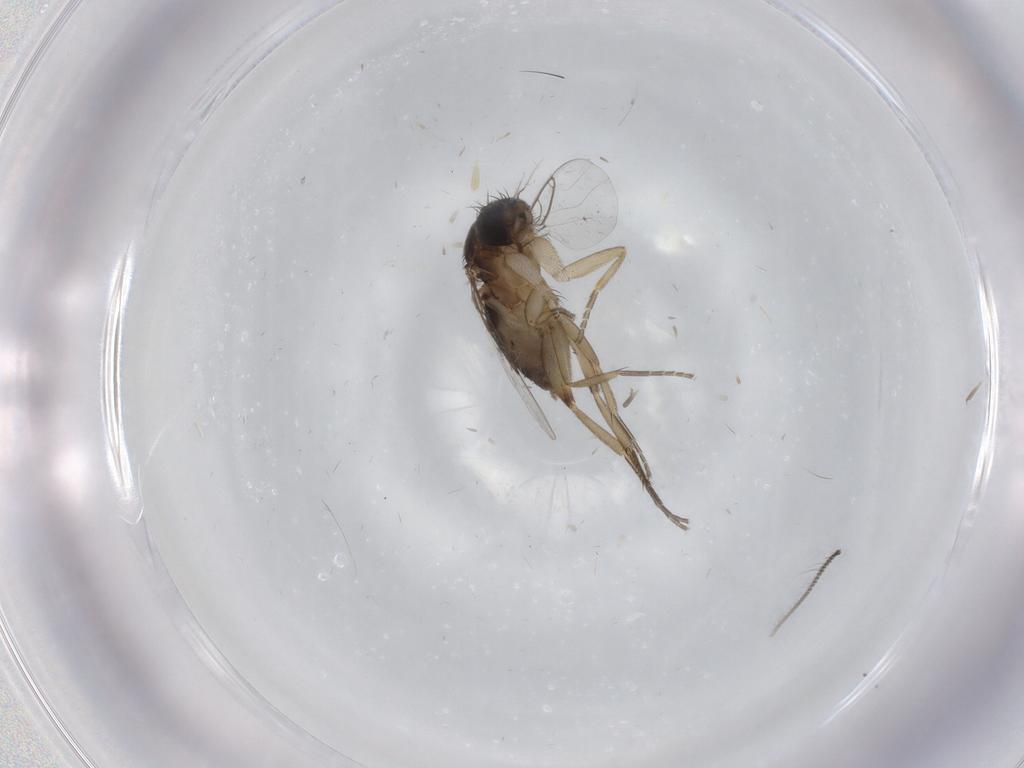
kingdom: Animalia
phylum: Arthropoda
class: Insecta
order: Diptera
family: Phoridae
